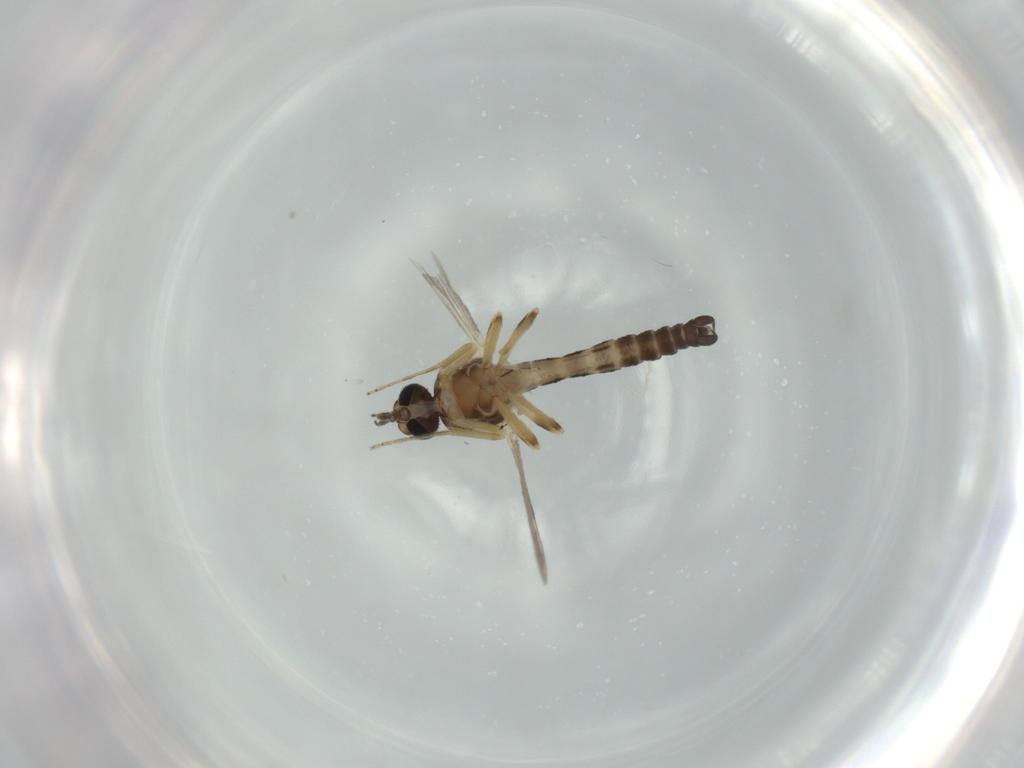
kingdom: Animalia
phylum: Arthropoda
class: Insecta
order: Diptera
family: Ceratopogonidae
